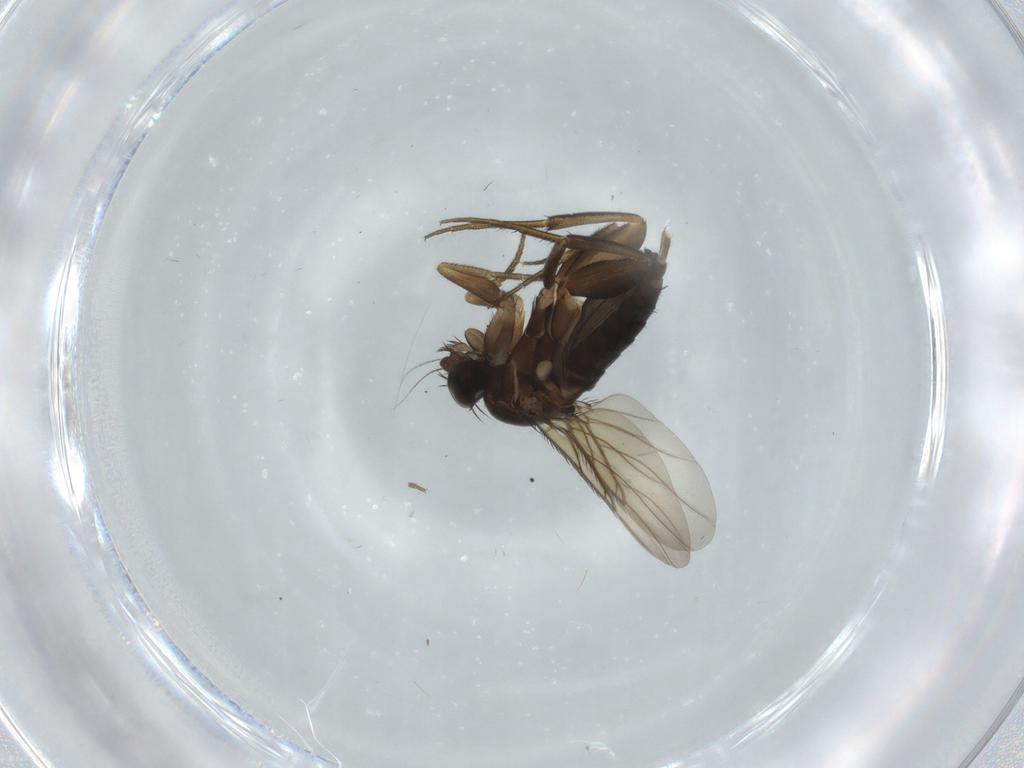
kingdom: Animalia
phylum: Arthropoda
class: Insecta
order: Diptera
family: Phoridae
